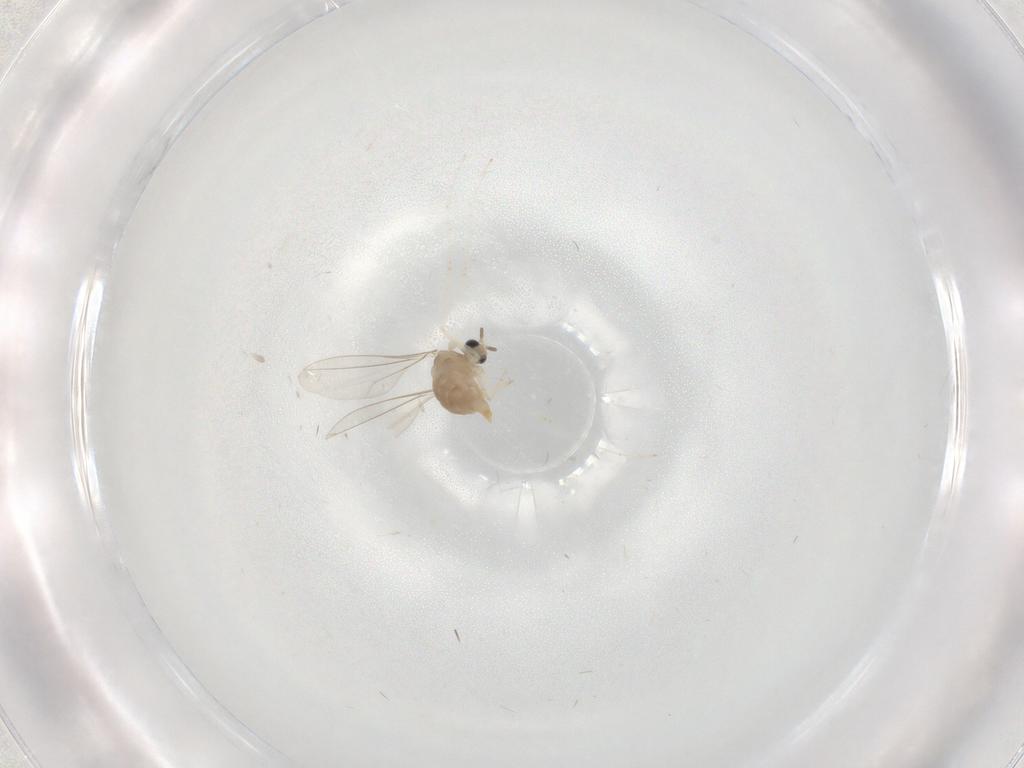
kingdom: Animalia
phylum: Arthropoda
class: Insecta
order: Diptera
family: Cecidomyiidae
